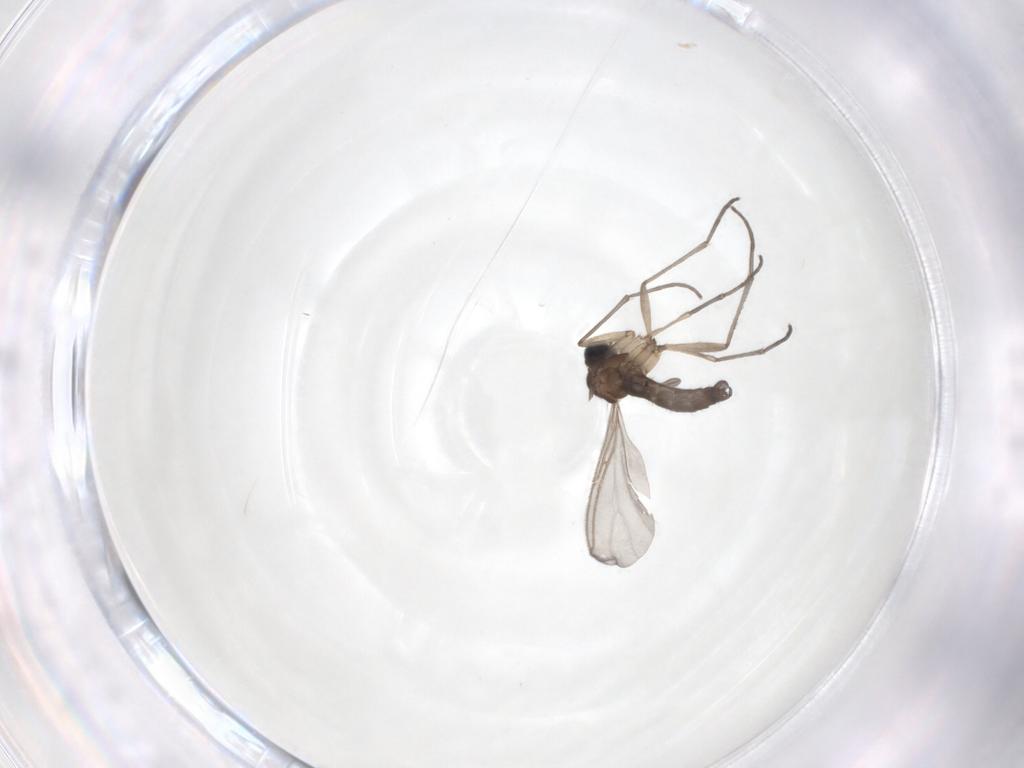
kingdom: Animalia
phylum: Arthropoda
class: Insecta
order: Diptera
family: Sciaridae
